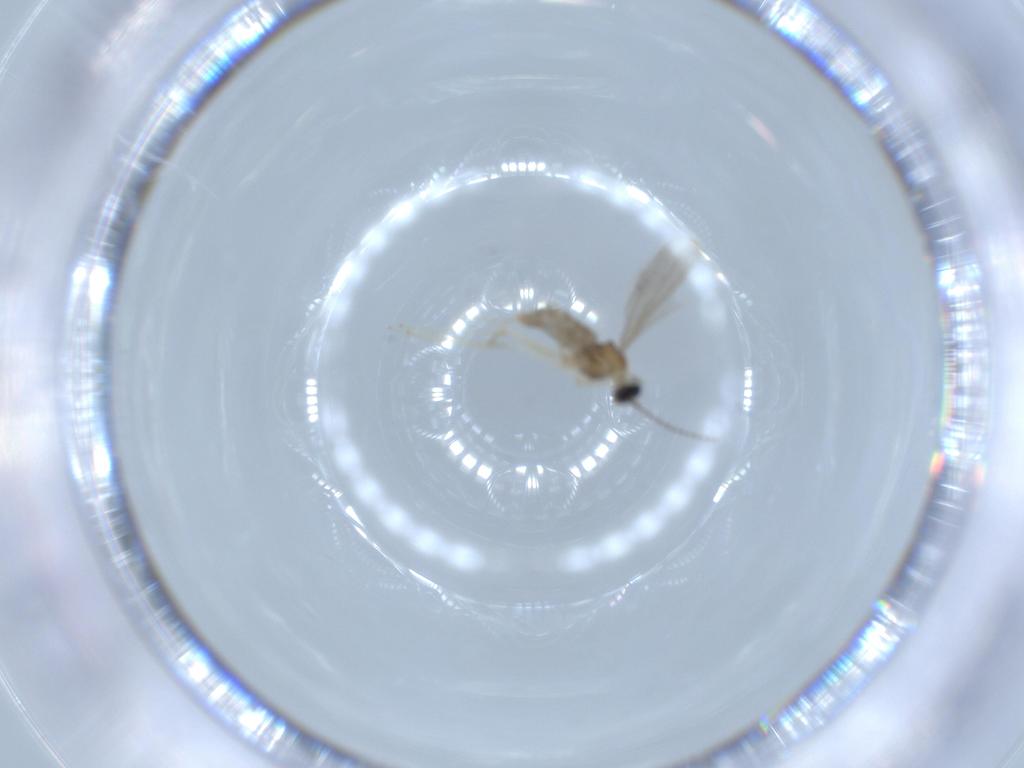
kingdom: Animalia
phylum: Arthropoda
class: Insecta
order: Diptera
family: Cecidomyiidae
